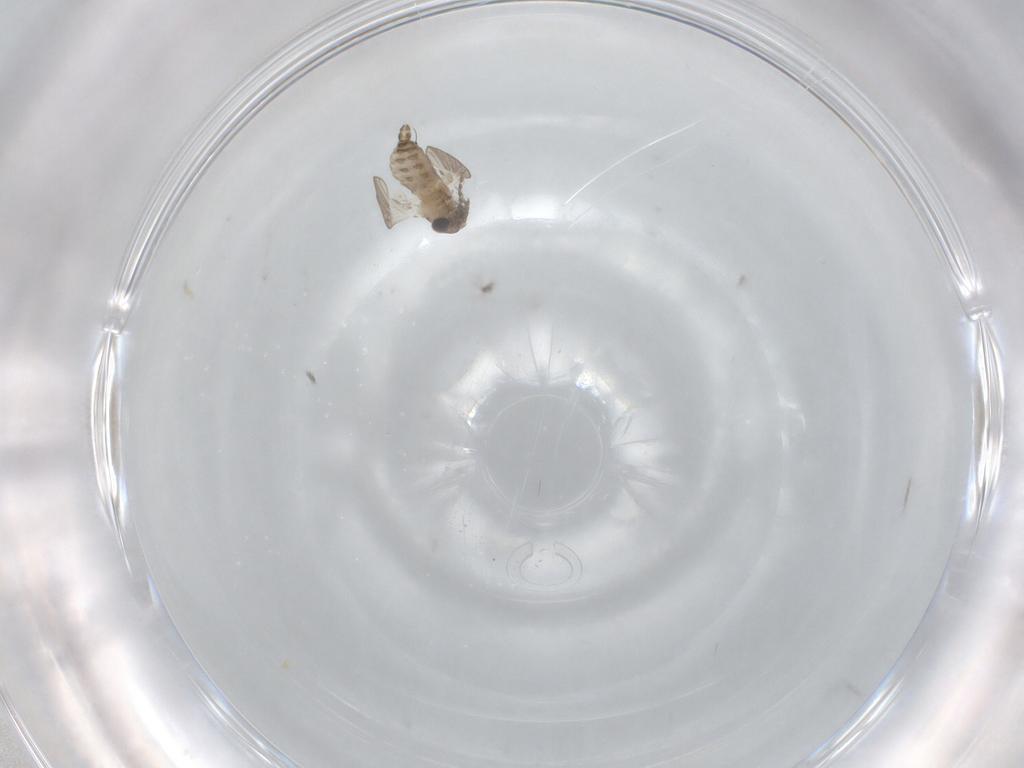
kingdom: Animalia
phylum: Arthropoda
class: Insecta
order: Diptera
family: Psychodidae
